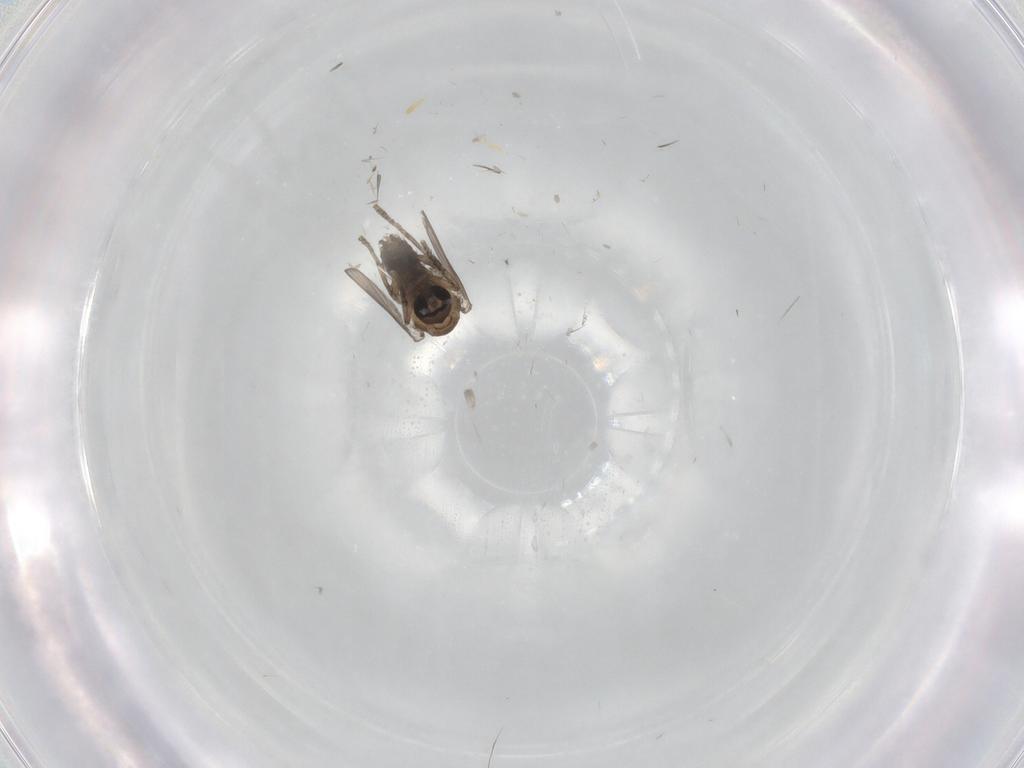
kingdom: Animalia
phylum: Arthropoda
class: Insecta
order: Diptera
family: Psychodidae
